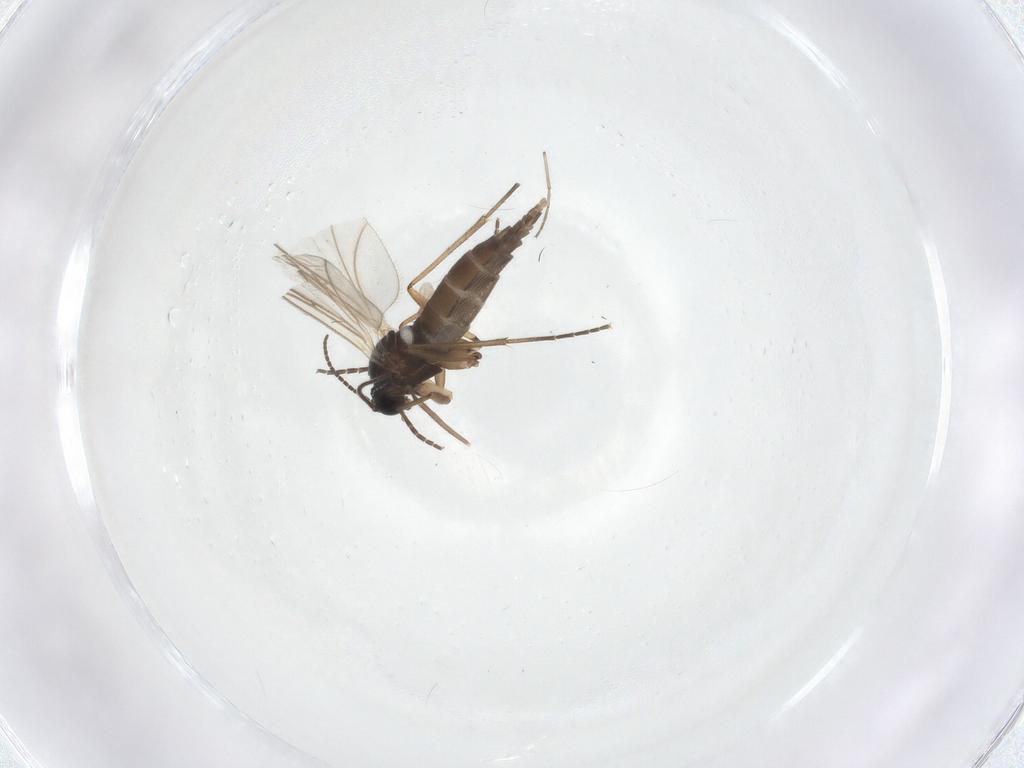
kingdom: Animalia
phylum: Arthropoda
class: Insecta
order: Diptera
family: Sciaridae
